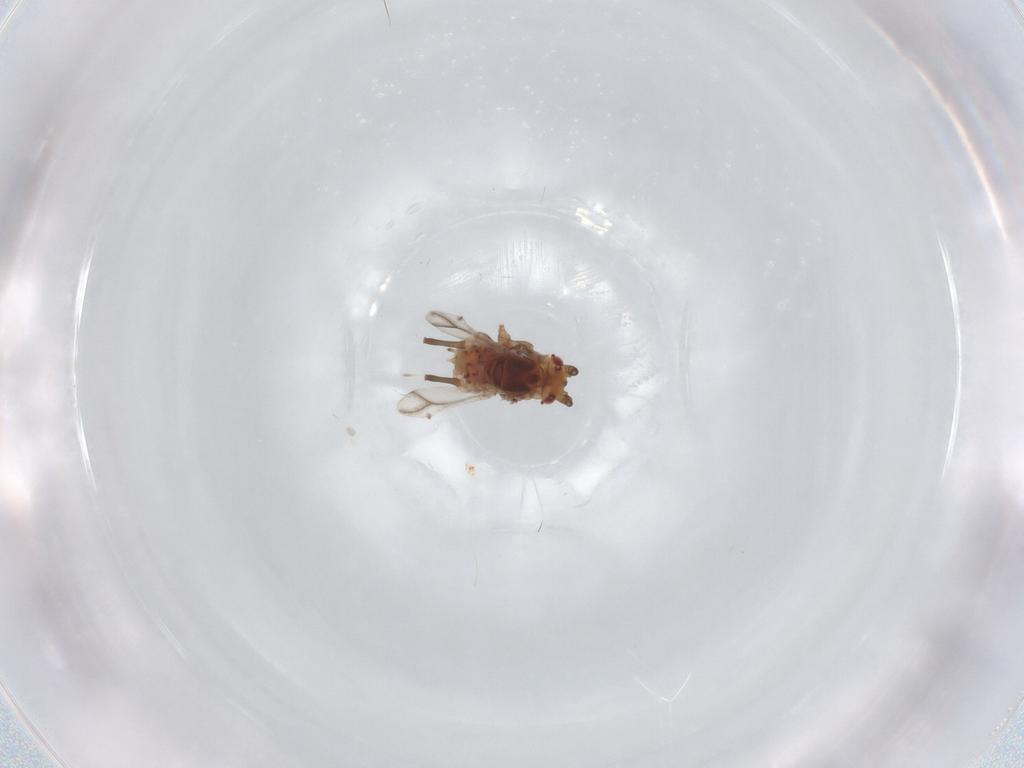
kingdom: Animalia
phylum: Arthropoda
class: Insecta
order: Hemiptera
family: Aphididae
